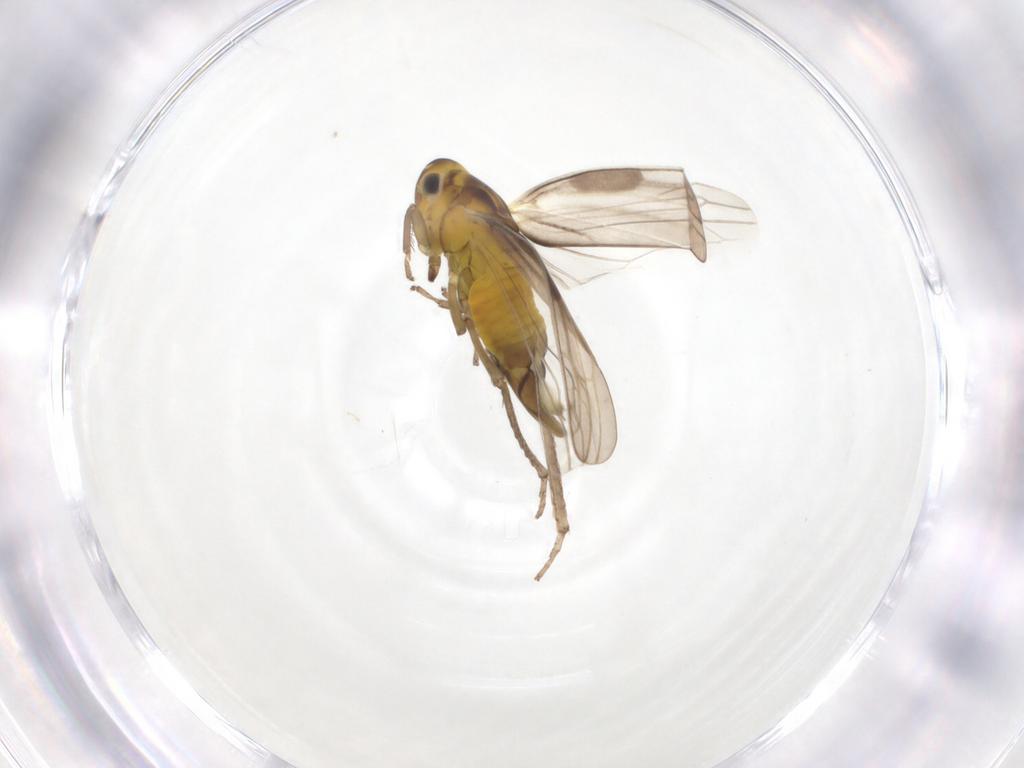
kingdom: Animalia
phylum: Arthropoda
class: Insecta
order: Hemiptera
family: Cicadellidae
